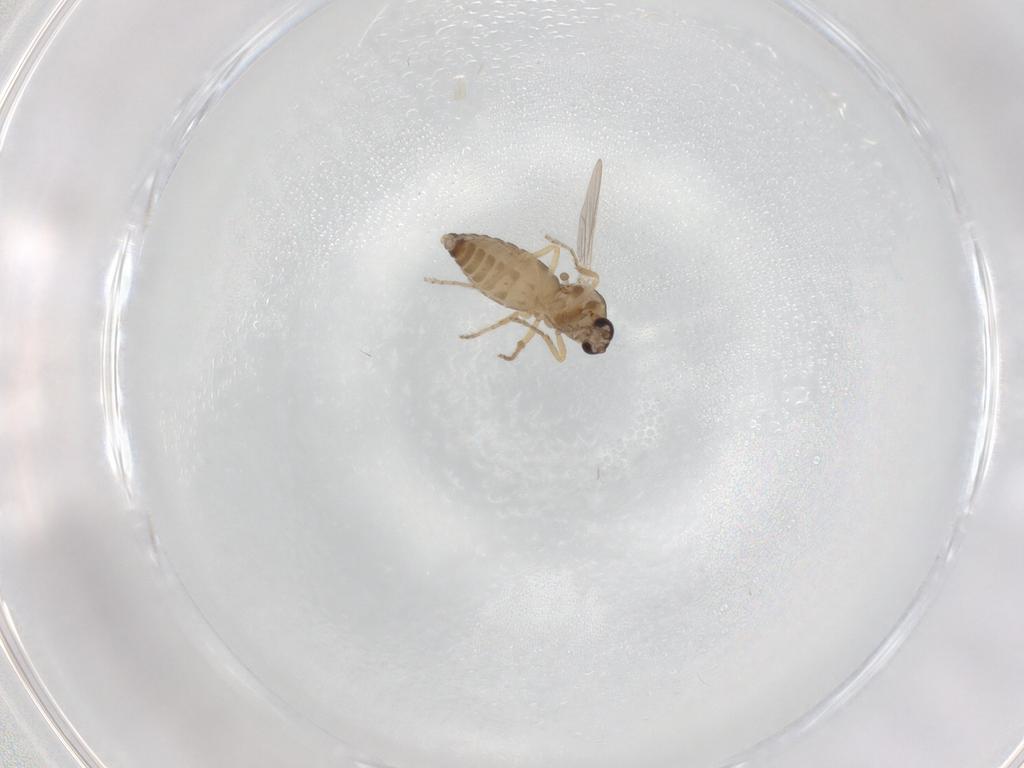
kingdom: Animalia
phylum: Arthropoda
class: Insecta
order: Diptera
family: Ceratopogonidae
